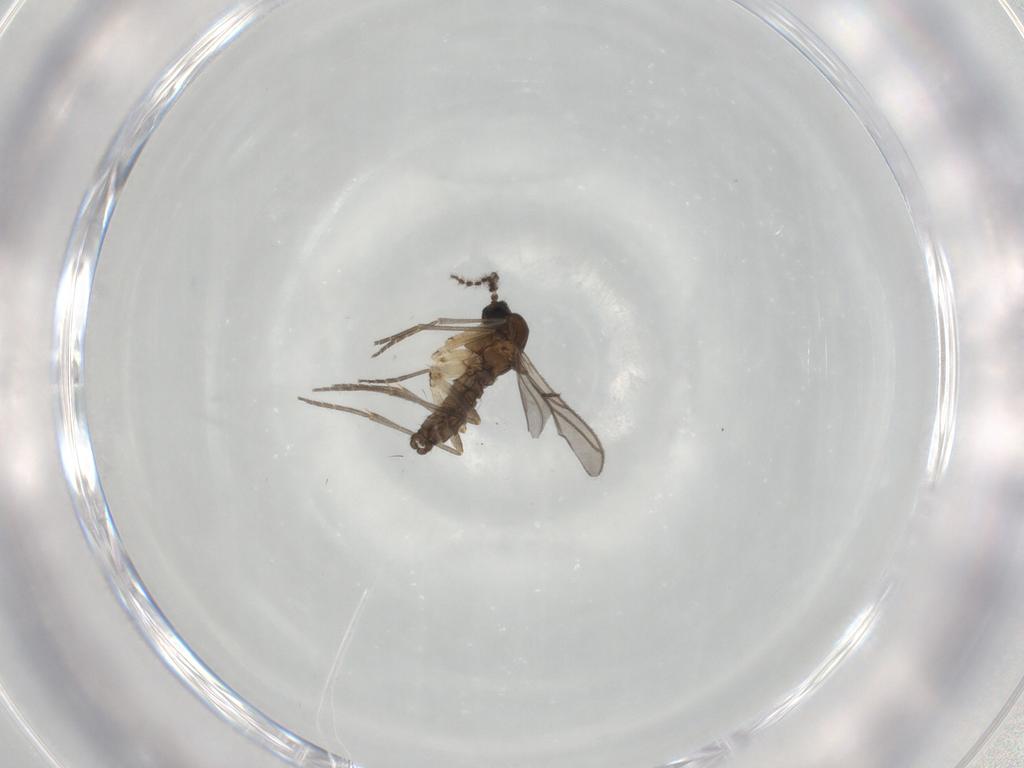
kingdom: Animalia
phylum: Arthropoda
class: Insecta
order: Diptera
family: Sciaridae
